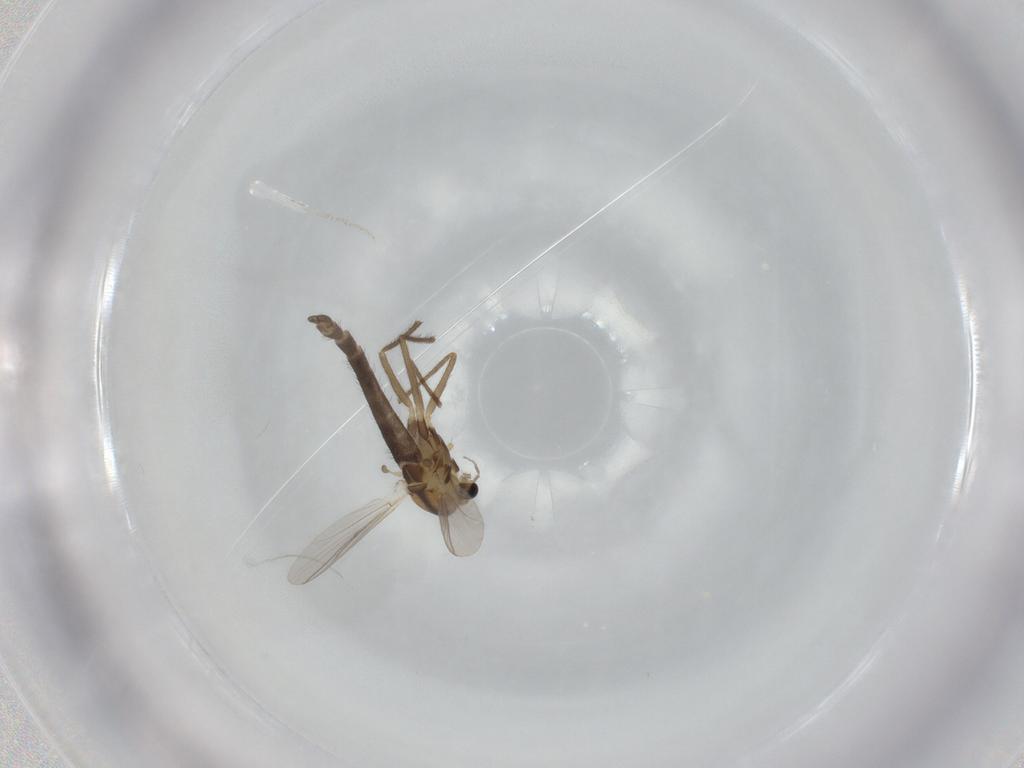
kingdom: Animalia
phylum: Arthropoda
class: Insecta
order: Diptera
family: Chironomidae
